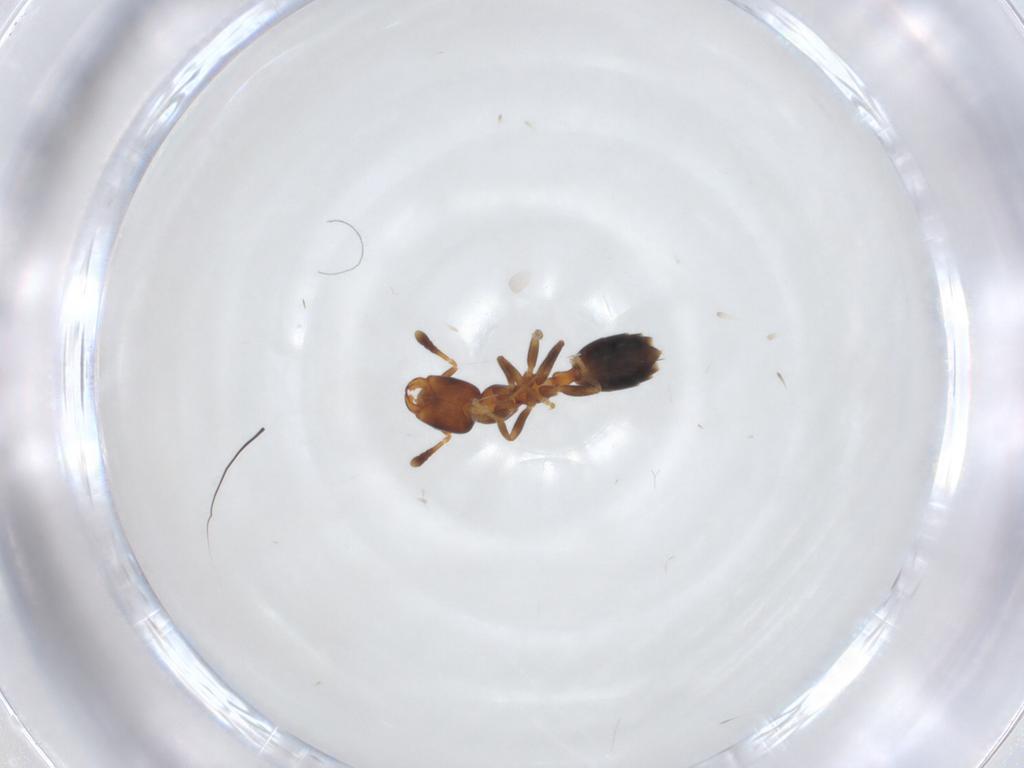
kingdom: Animalia
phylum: Arthropoda
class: Insecta
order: Hymenoptera
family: Formicidae
